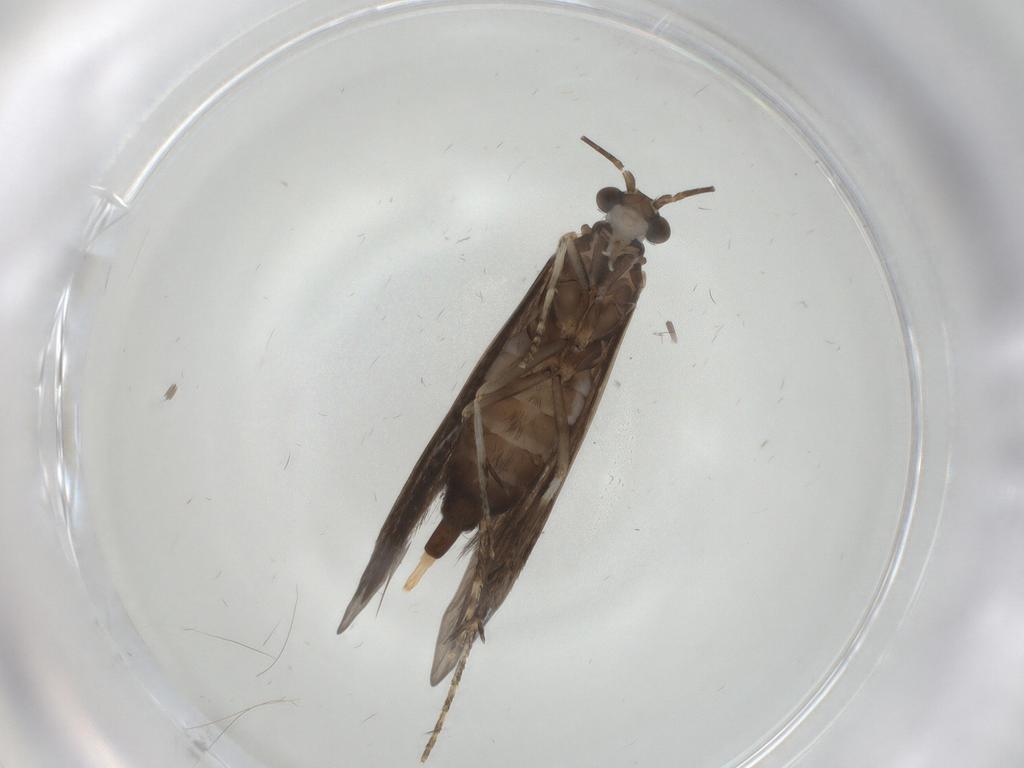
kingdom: Animalia
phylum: Arthropoda
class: Insecta
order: Trichoptera
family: Xiphocentronidae
